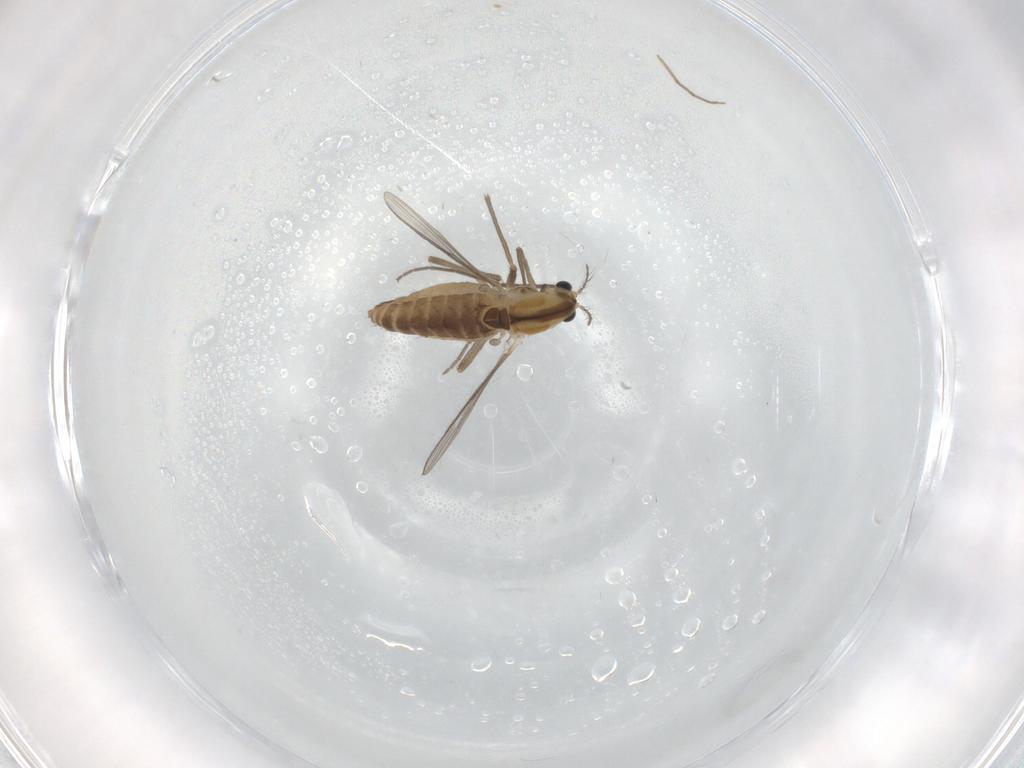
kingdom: Animalia
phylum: Arthropoda
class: Insecta
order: Diptera
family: Chironomidae
